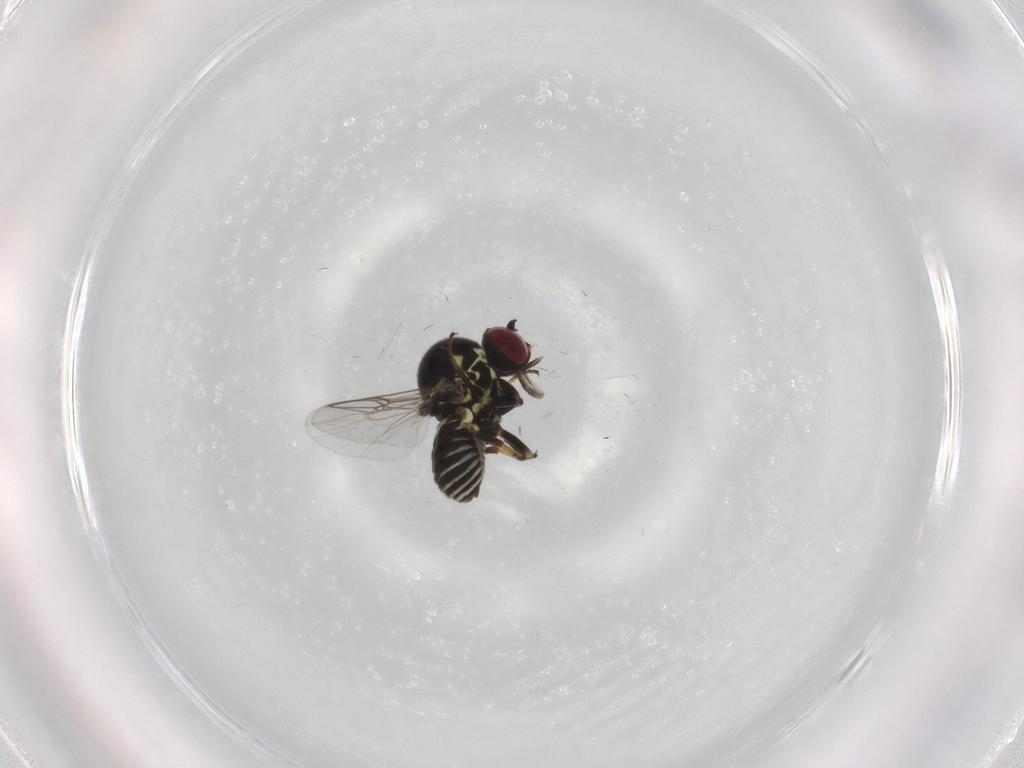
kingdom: Animalia
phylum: Arthropoda
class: Insecta
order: Diptera
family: Bombyliidae
